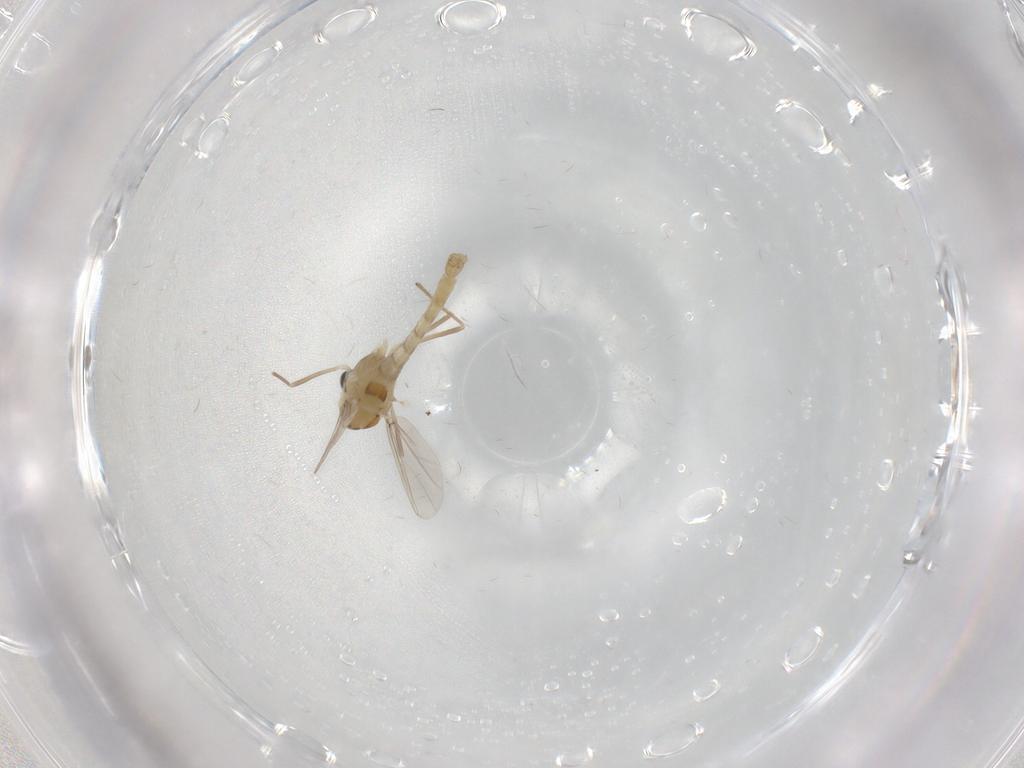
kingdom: Animalia
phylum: Arthropoda
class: Insecta
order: Diptera
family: Chironomidae
